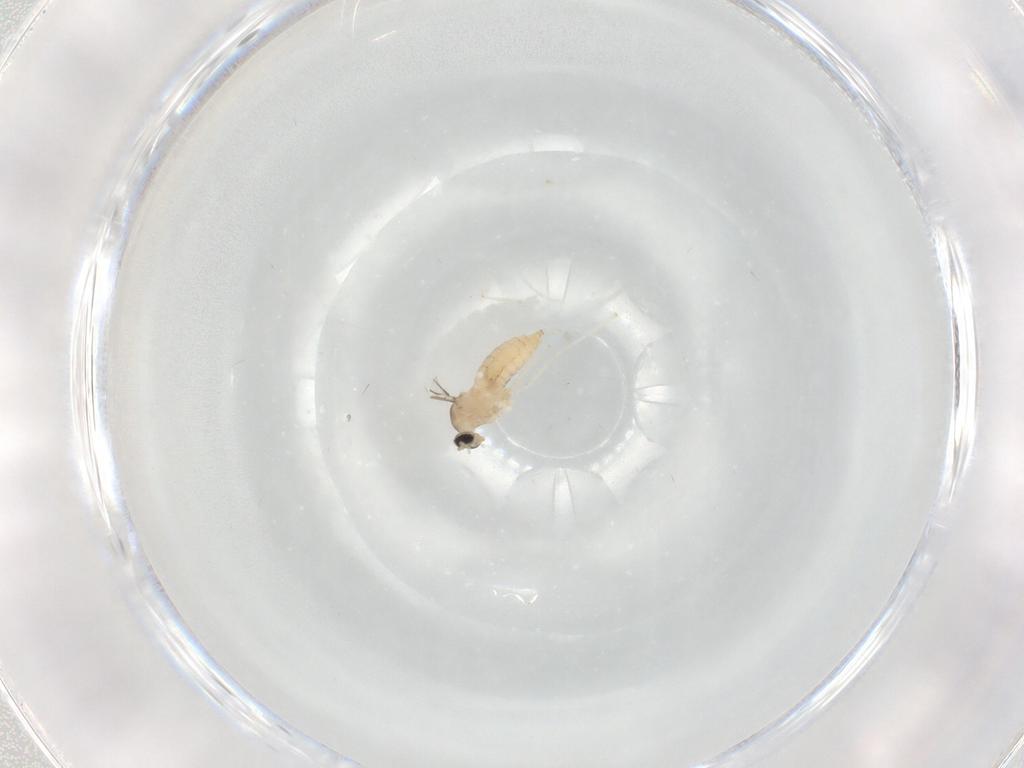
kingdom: Animalia
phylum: Arthropoda
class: Insecta
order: Diptera
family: Cecidomyiidae
